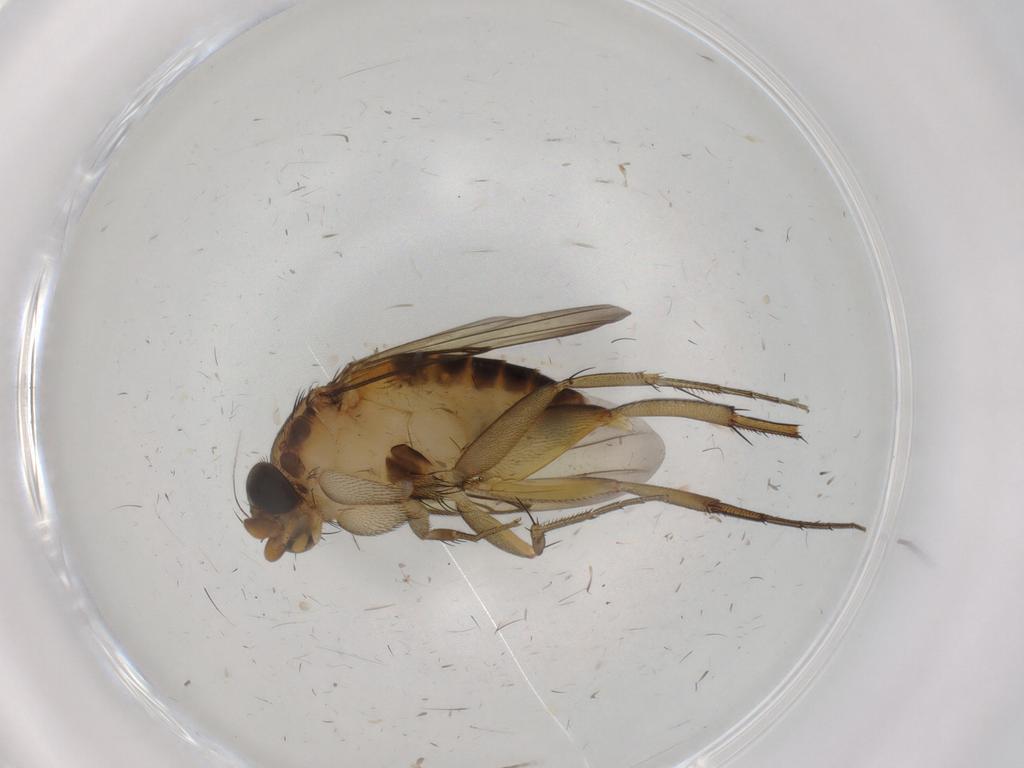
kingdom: Animalia
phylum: Arthropoda
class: Insecta
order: Diptera
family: Phoridae
